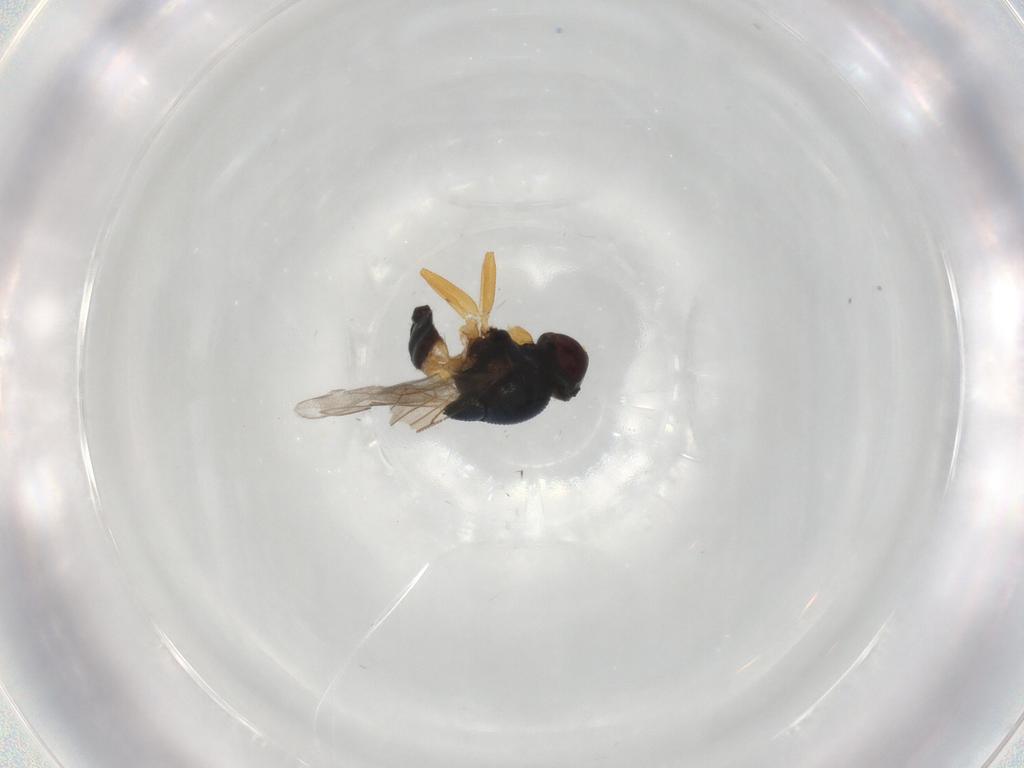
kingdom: Animalia
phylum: Arthropoda
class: Insecta
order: Diptera
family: Chloropidae
